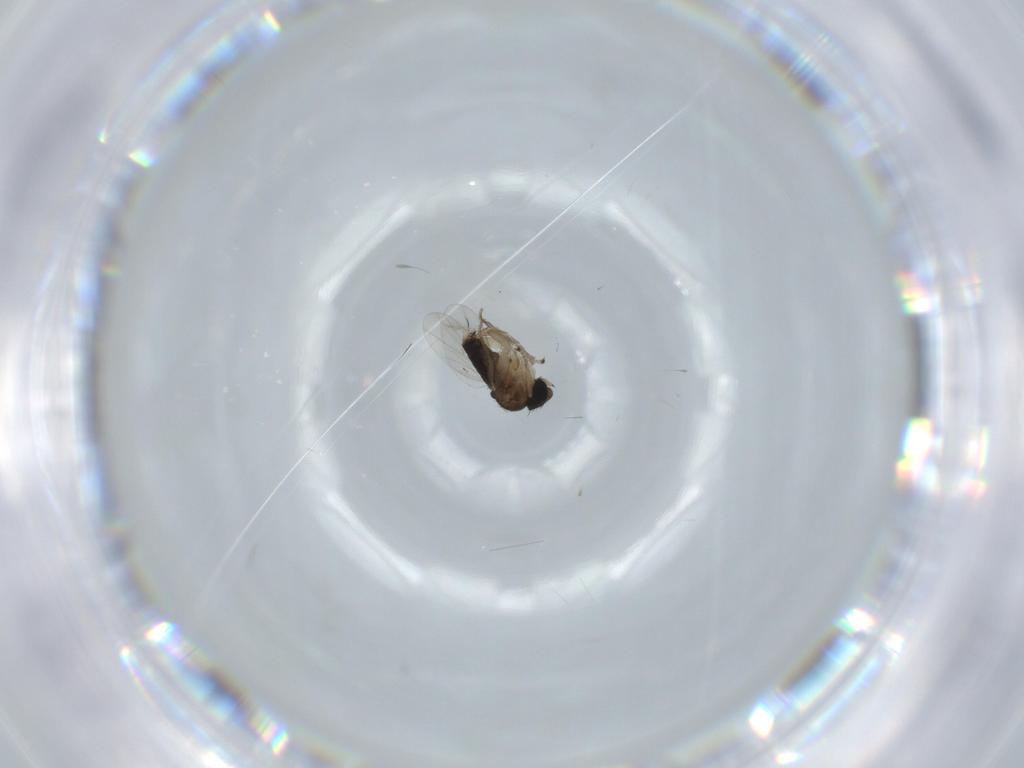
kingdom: Animalia
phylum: Arthropoda
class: Insecta
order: Diptera
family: Phoridae
